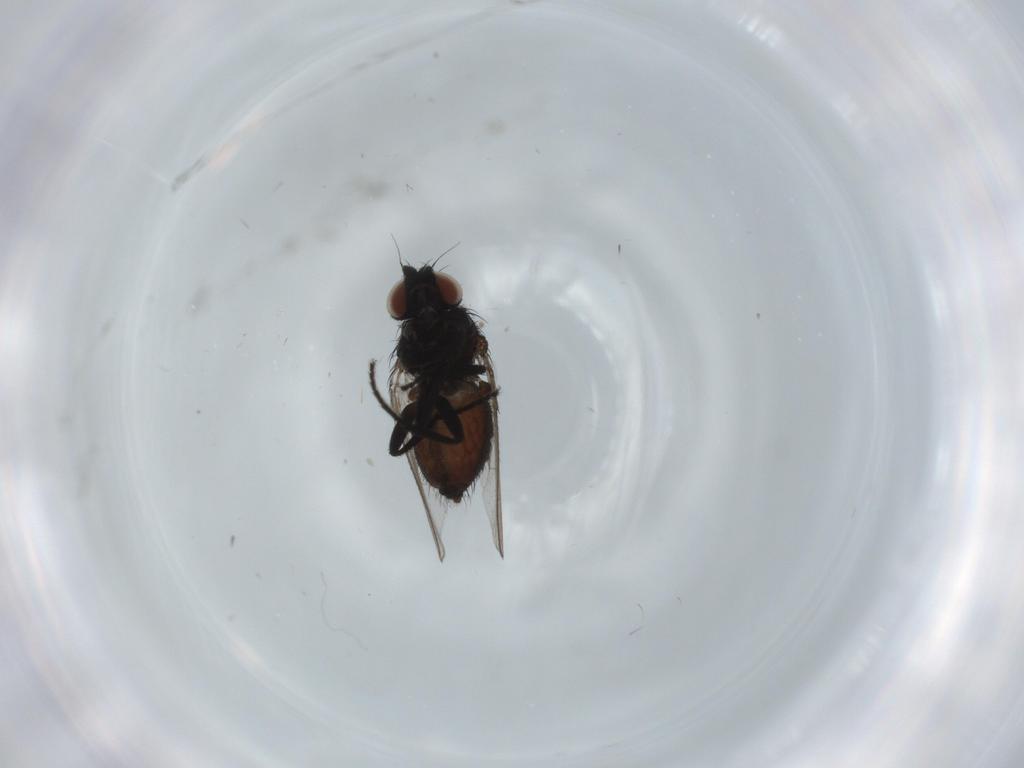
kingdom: Animalia
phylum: Arthropoda
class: Insecta
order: Diptera
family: Milichiidae
